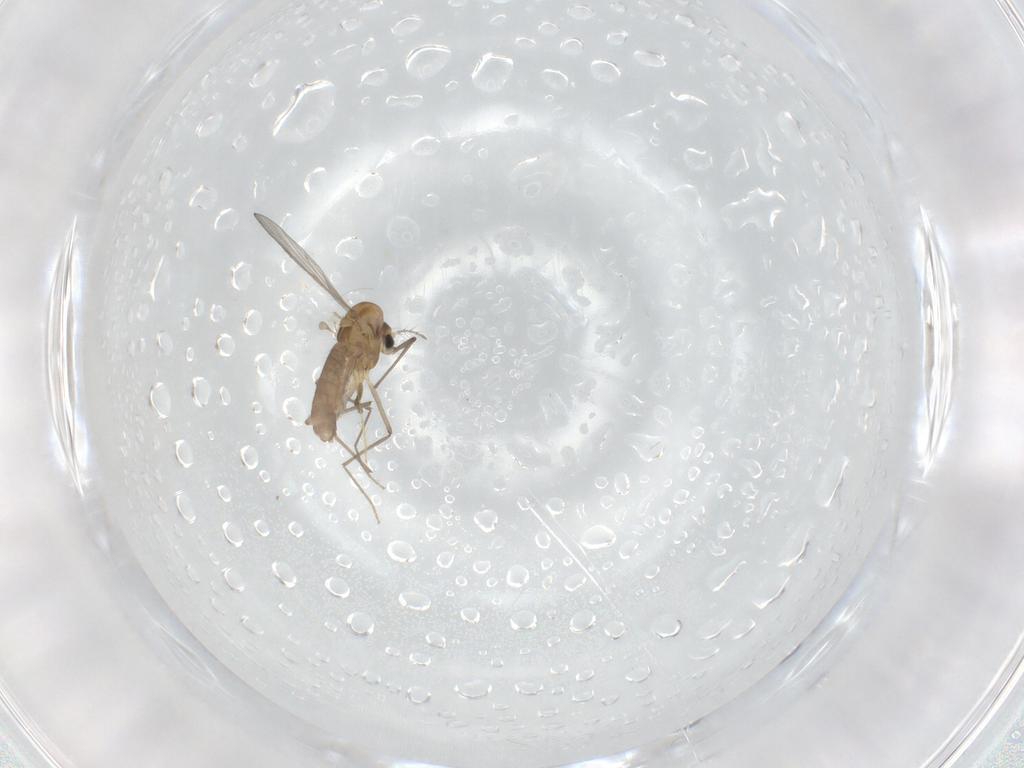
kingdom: Animalia
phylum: Arthropoda
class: Insecta
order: Diptera
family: Chironomidae
